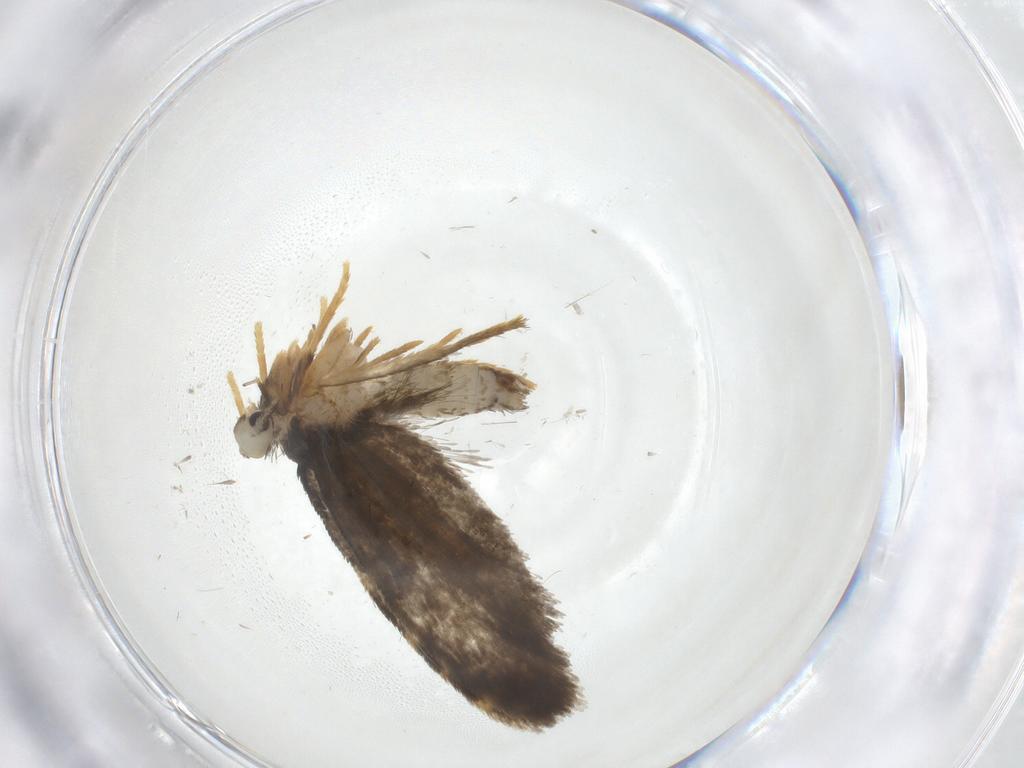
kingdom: Animalia
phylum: Arthropoda
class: Insecta
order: Lepidoptera
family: Psychidae
